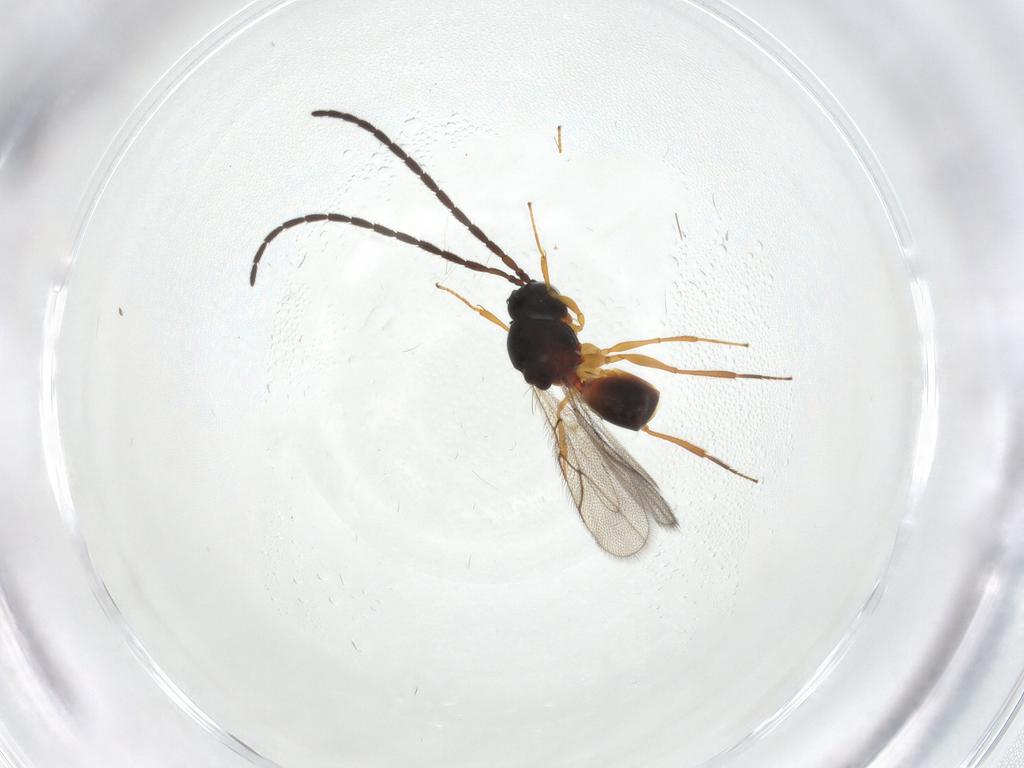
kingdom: Animalia
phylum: Arthropoda
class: Insecta
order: Hymenoptera
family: Figitidae
